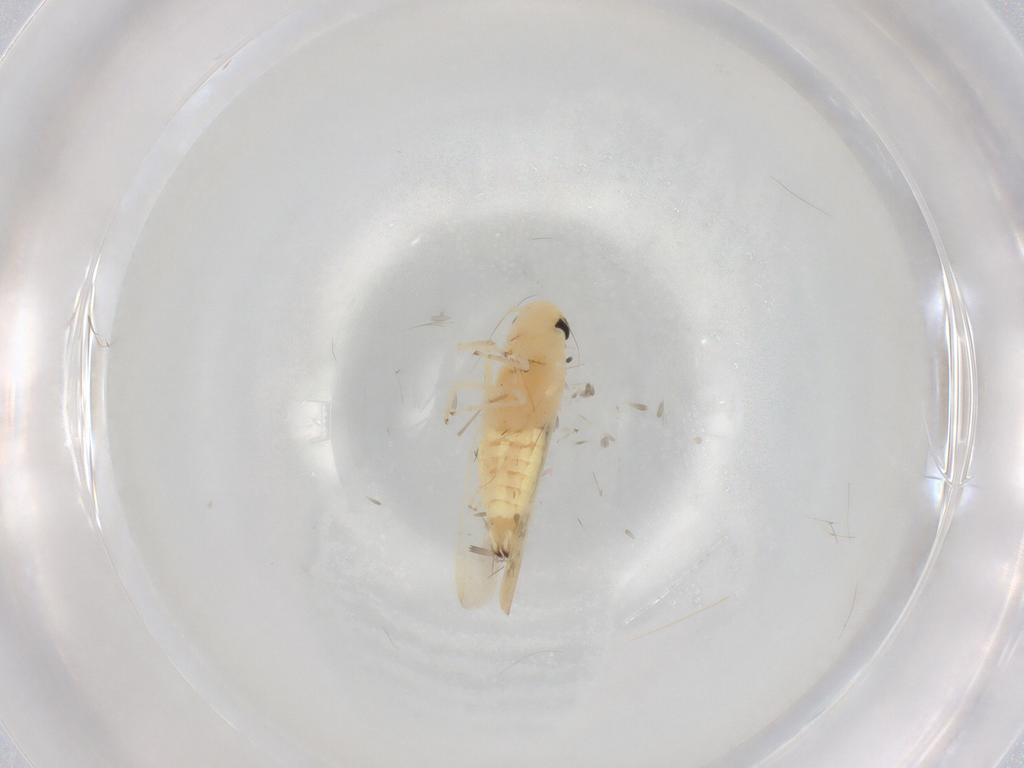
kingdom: Animalia
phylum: Arthropoda
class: Insecta
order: Hemiptera
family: Cicadellidae
